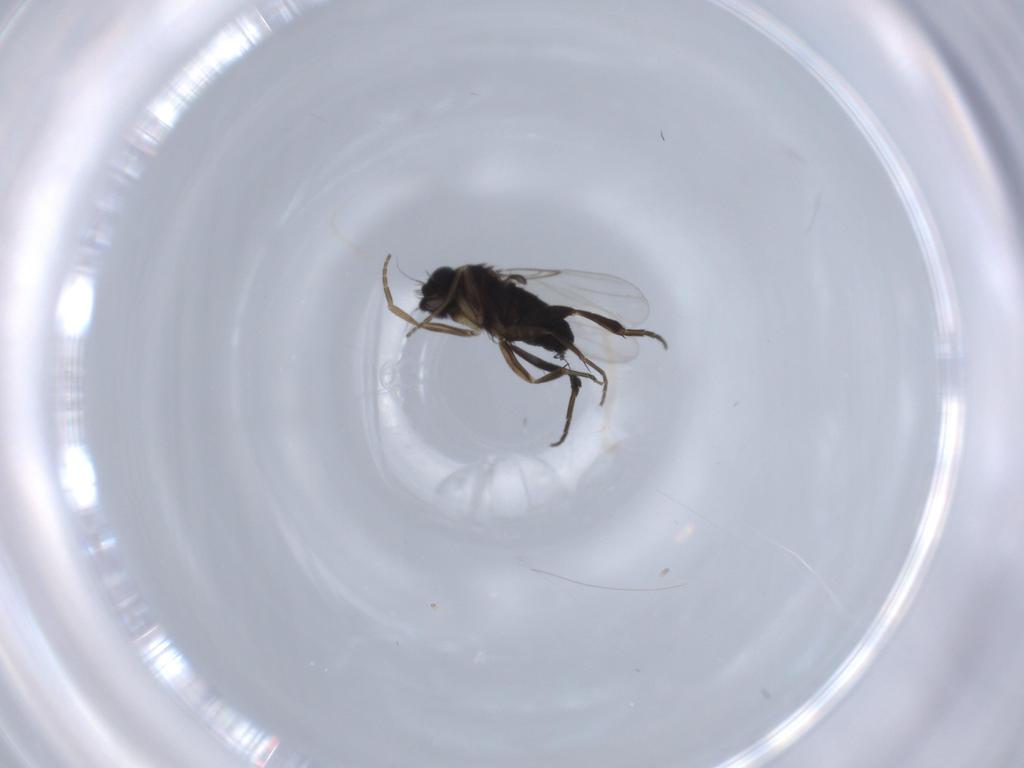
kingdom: Animalia
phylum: Arthropoda
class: Insecta
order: Diptera
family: Phoridae
